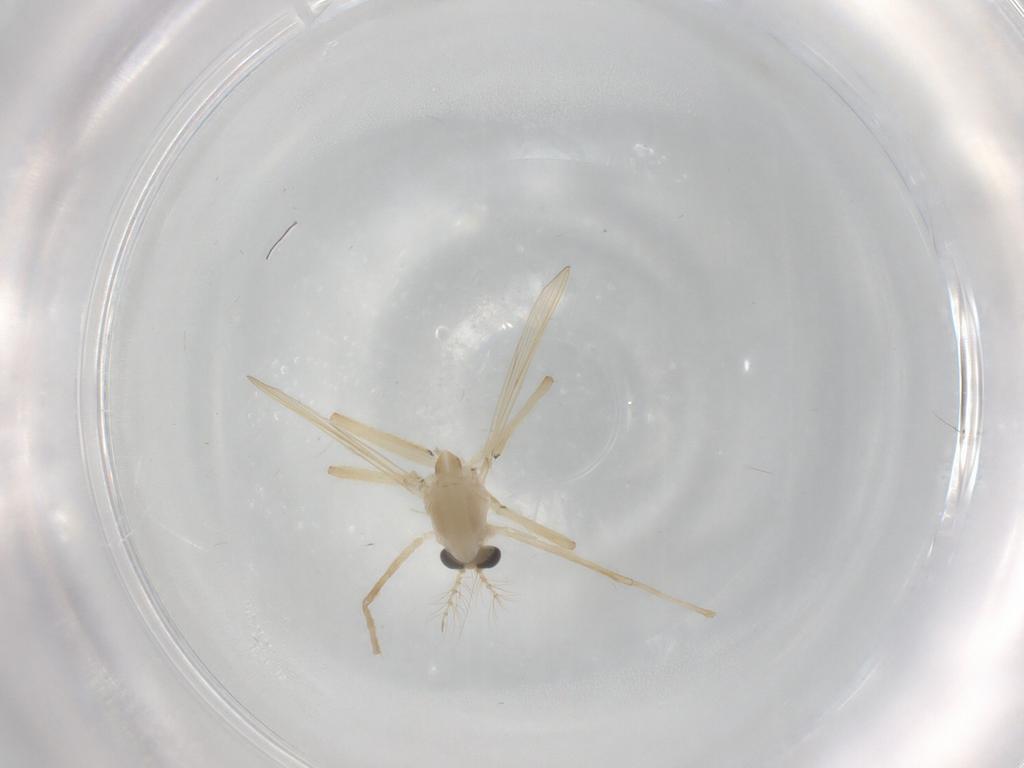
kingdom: Animalia
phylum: Arthropoda
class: Insecta
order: Diptera
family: Chironomidae
